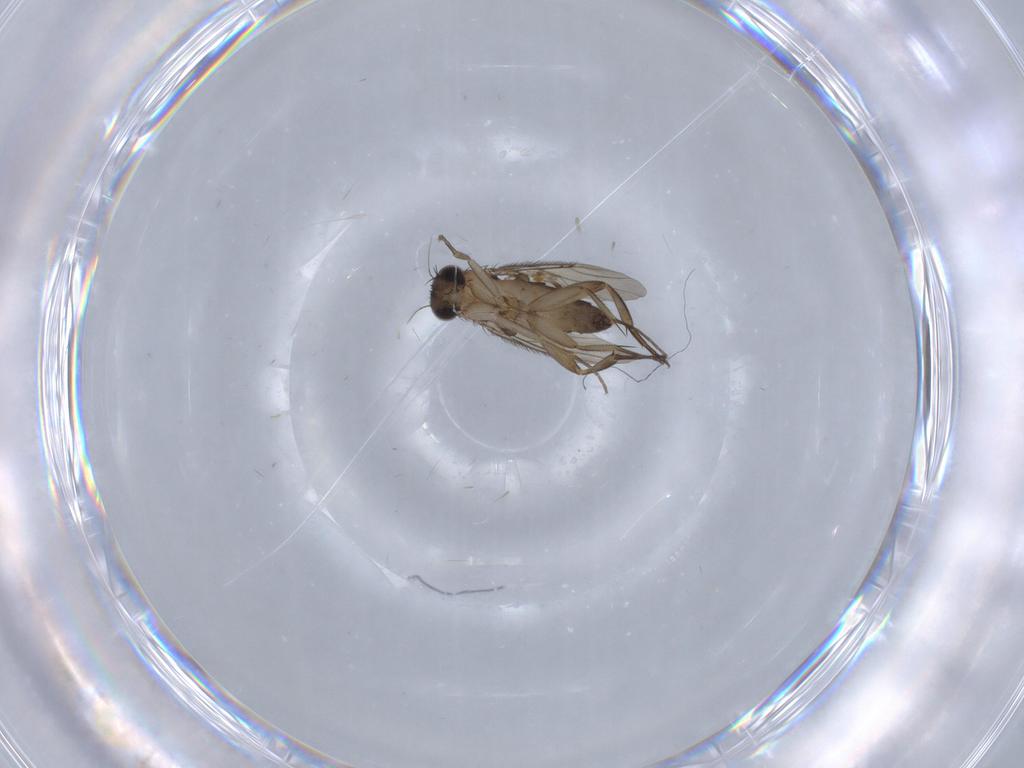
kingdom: Animalia
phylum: Arthropoda
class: Insecta
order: Diptera
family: Phoridae
